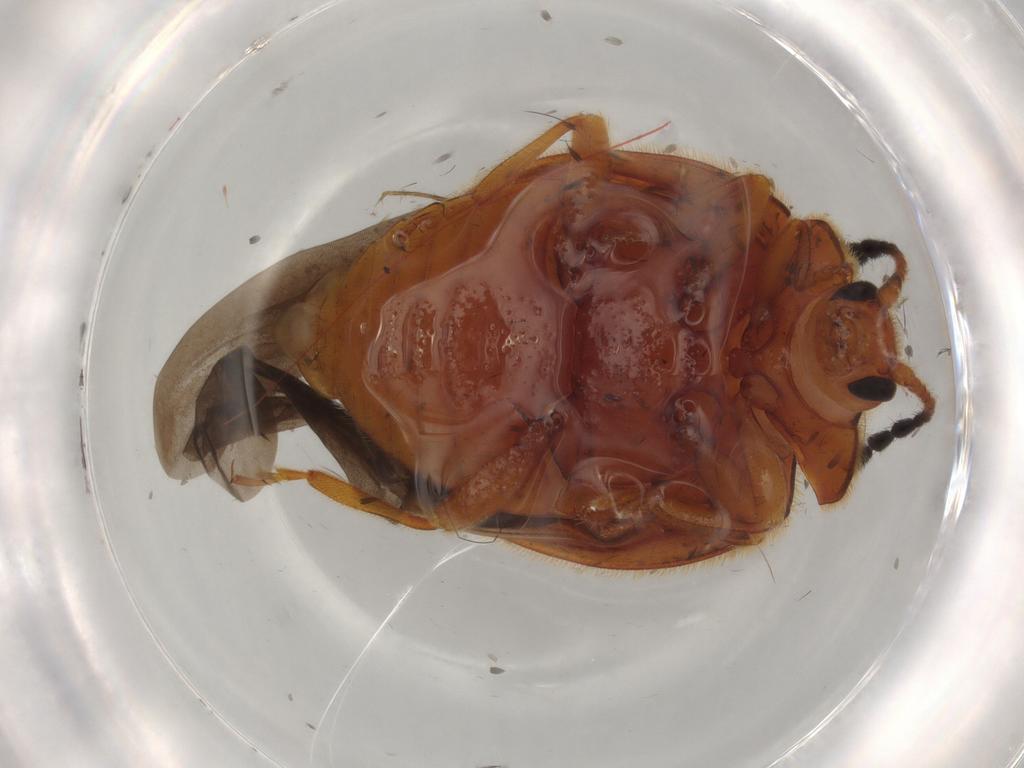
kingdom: Animalia
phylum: Arthropoda
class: Insecta
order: Coleoptera
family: Endomychidae
